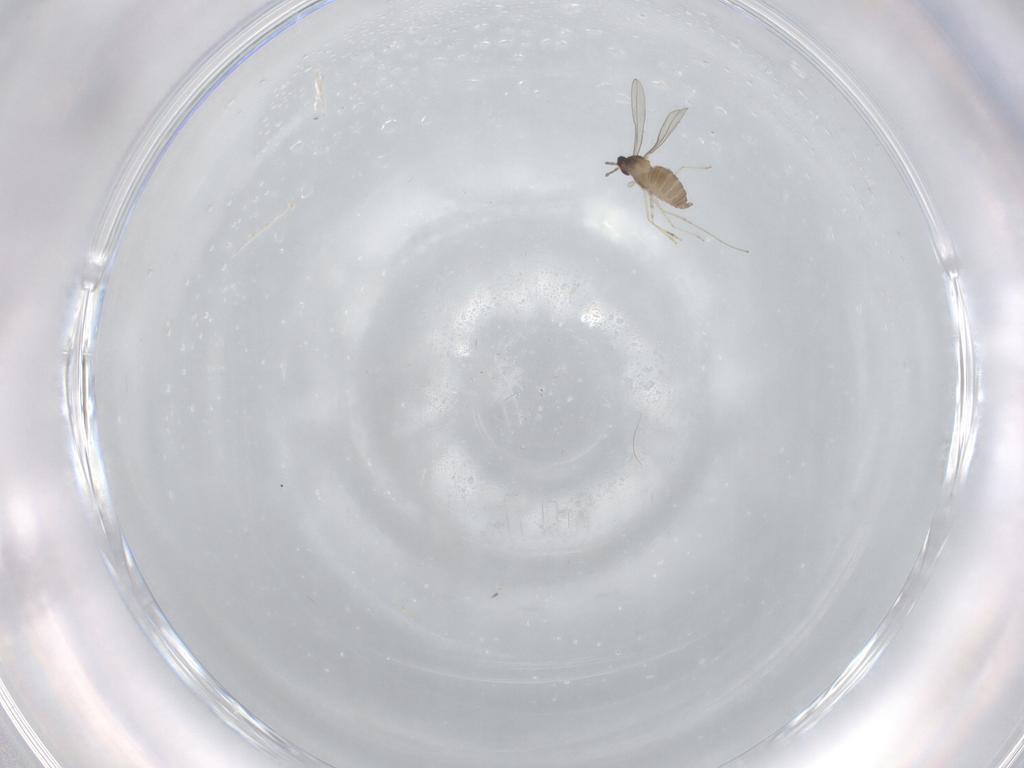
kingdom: Animalia
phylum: Arthropoda
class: Insecta
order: Diptera
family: Cecidomyiidae
